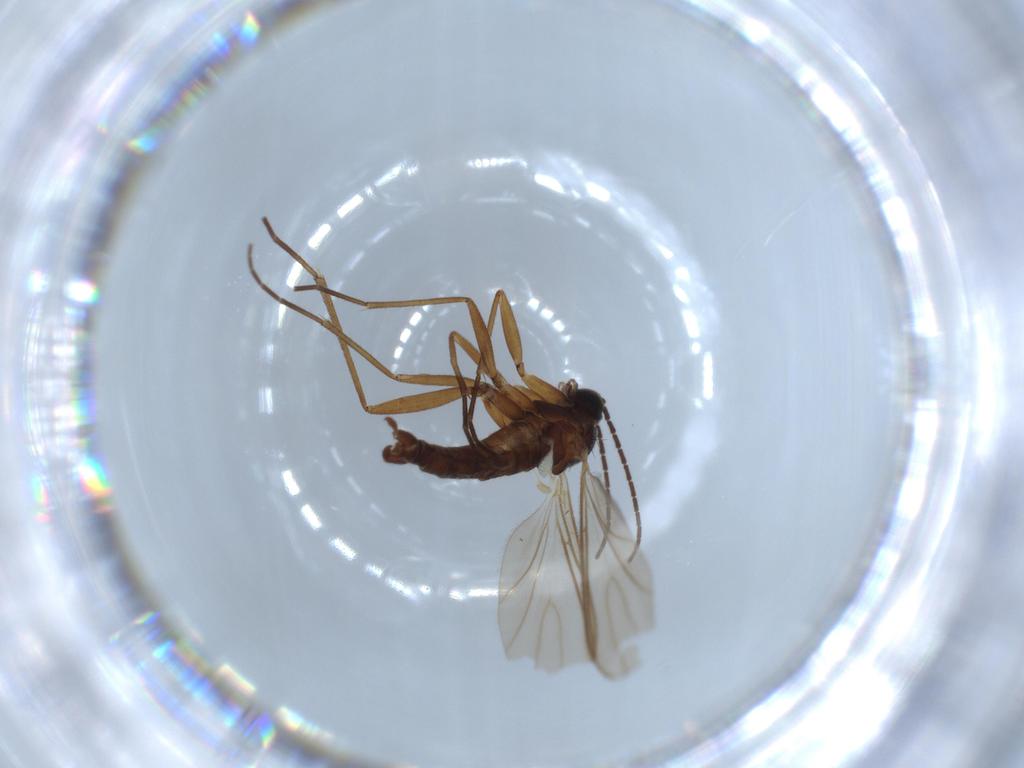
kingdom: Animalia
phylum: Arthropoda
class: Insecta
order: Diptera
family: Sciaridae
